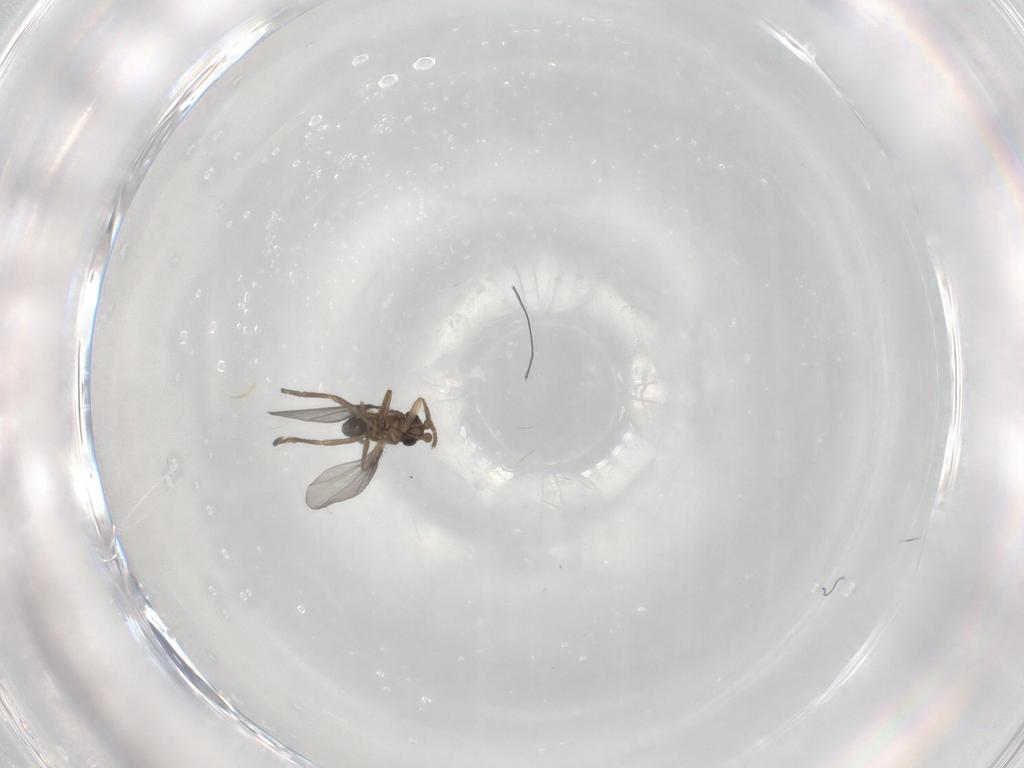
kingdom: Animalia
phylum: Arthropoda
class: Insecta
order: Diptera
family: Phoridae
